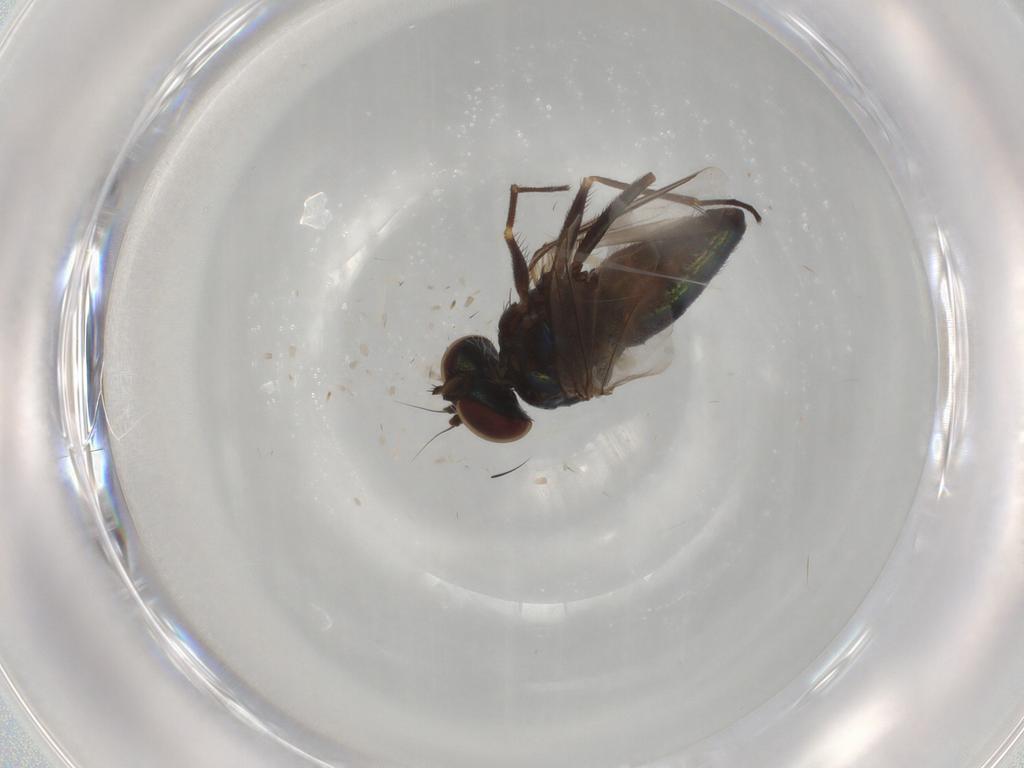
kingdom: Animalia
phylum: Arthropoda
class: Insecta
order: Diptera
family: Dolichopodidae
